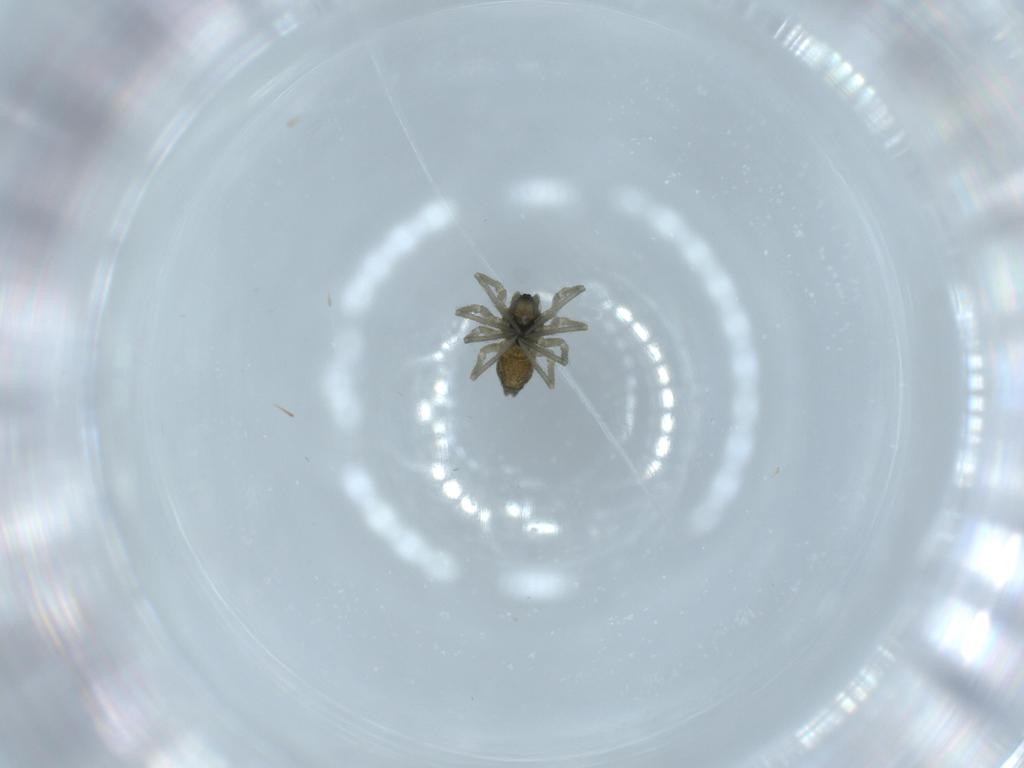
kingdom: Animalia
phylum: Arthropoda
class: Arachnida
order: Araneae
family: Linyphiidae
